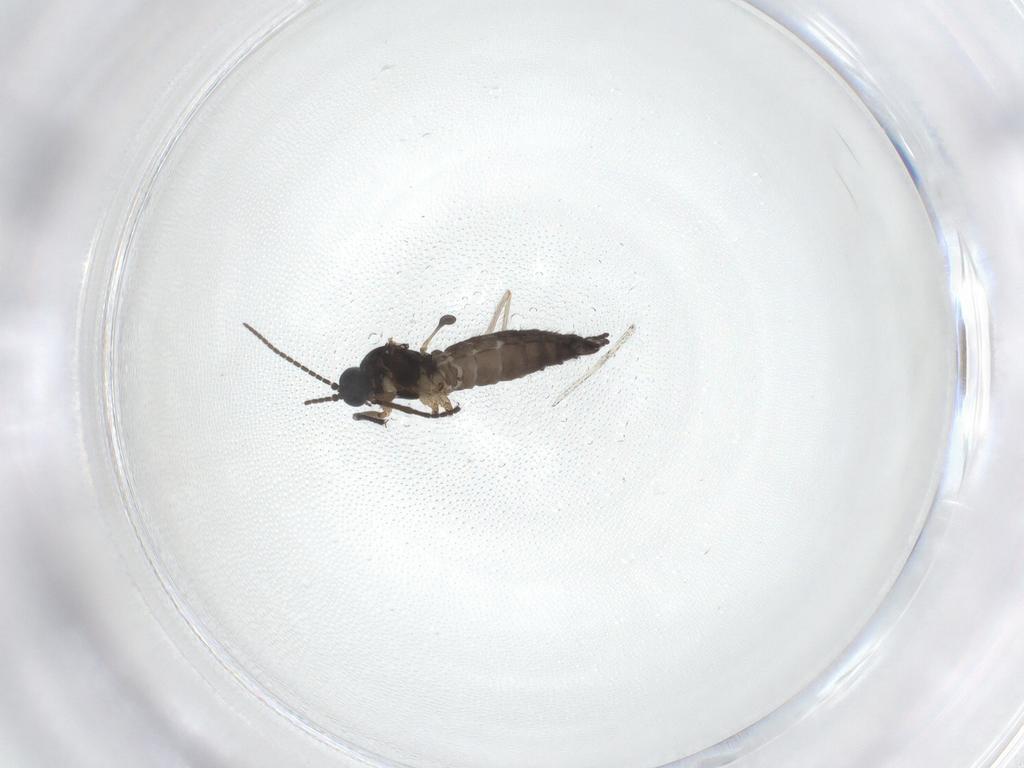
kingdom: Animalia
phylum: Arthropoda
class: Insecta
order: Diptera
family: Sciaridae
